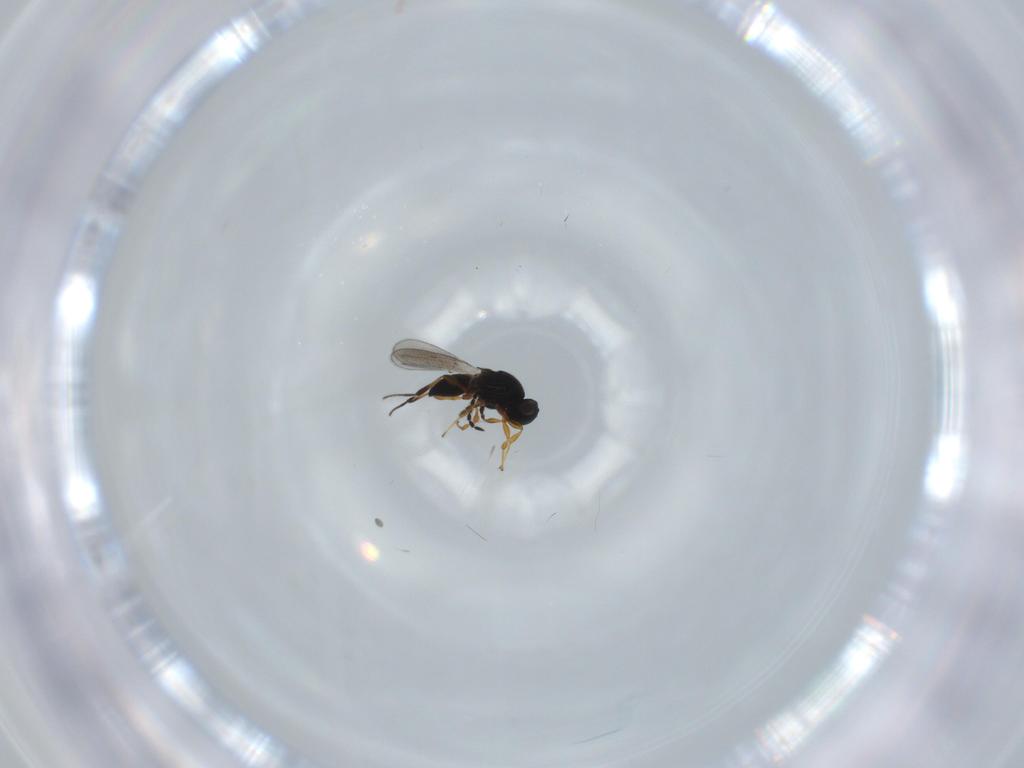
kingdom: Animalia
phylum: Arthropoda
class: Insecta
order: Hymenoptera
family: Platygastridae
